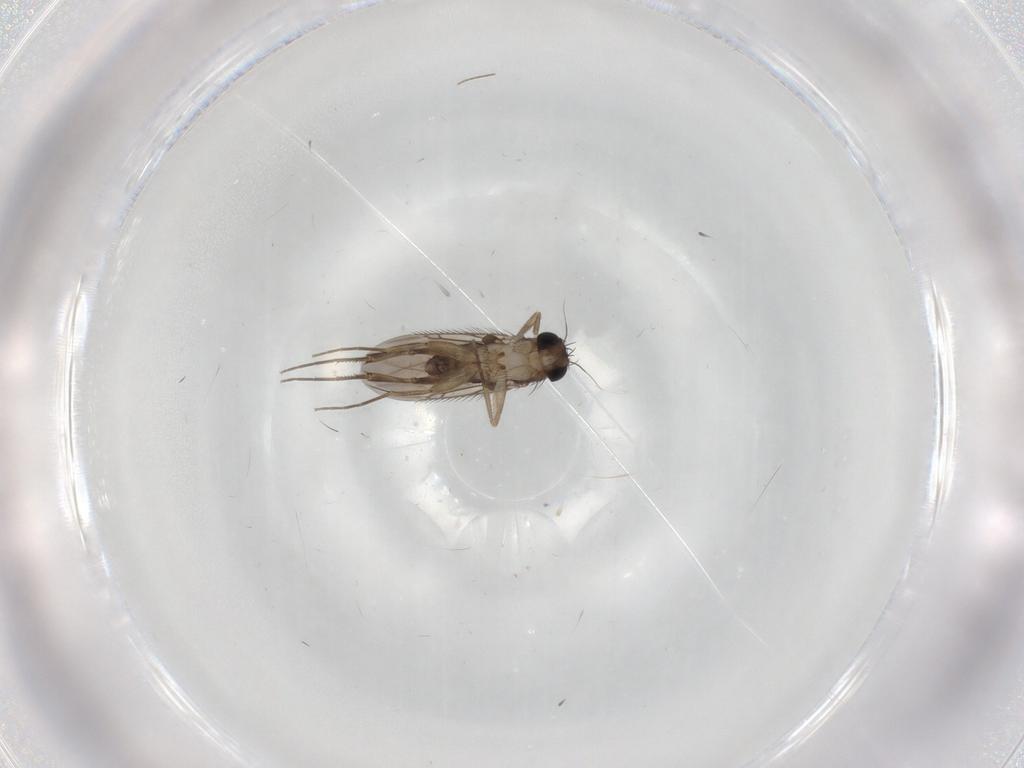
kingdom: Animalia
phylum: Arthropoda
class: Insecta
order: Diptera
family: Phoridae
